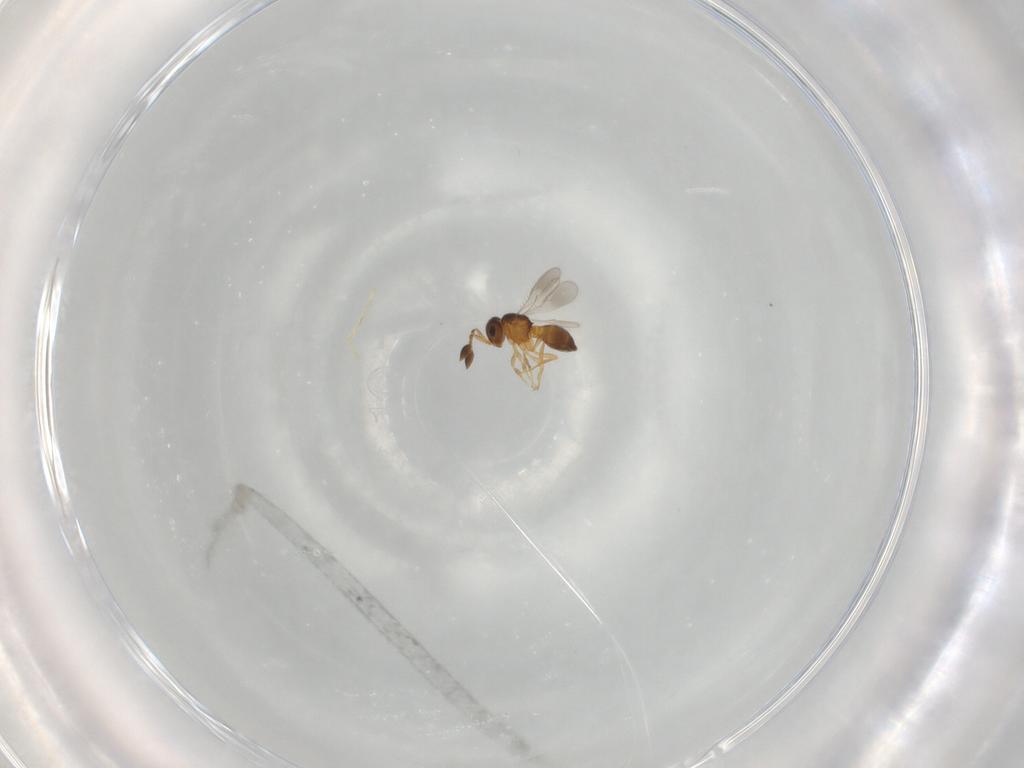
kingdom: Animalia
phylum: Arthropoda
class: Insecta
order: Hymenoptera
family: Scelionidae
